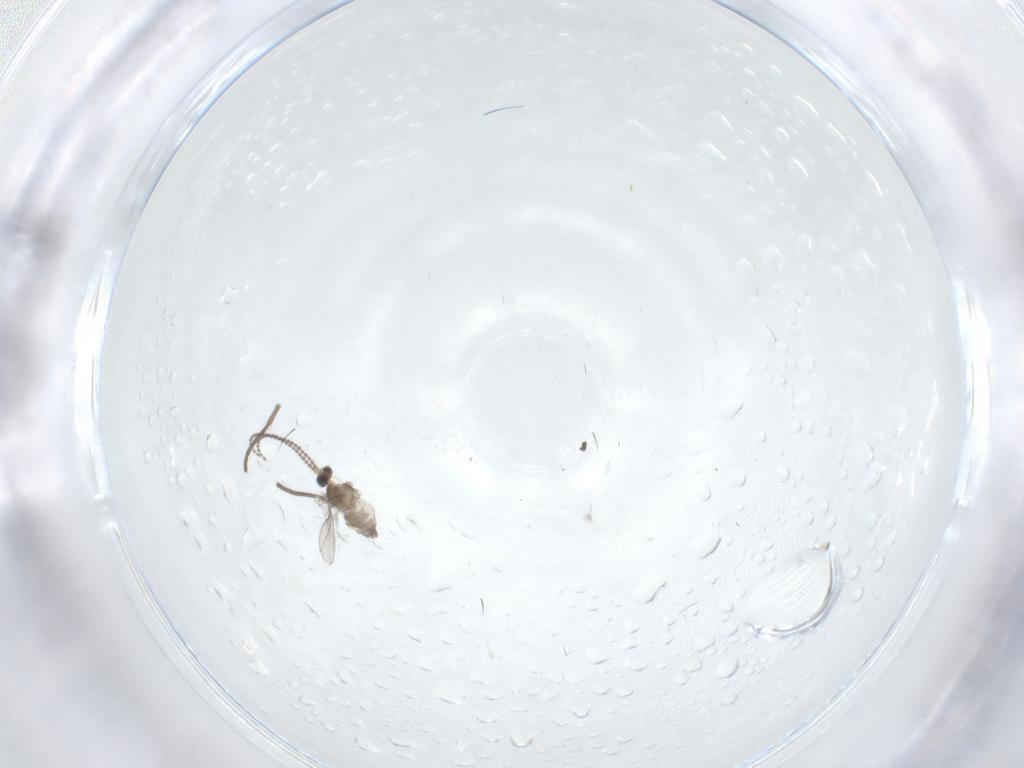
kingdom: Animalia
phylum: Arthropoda
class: Insecta
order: Diptera
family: Cecidomyiidae
